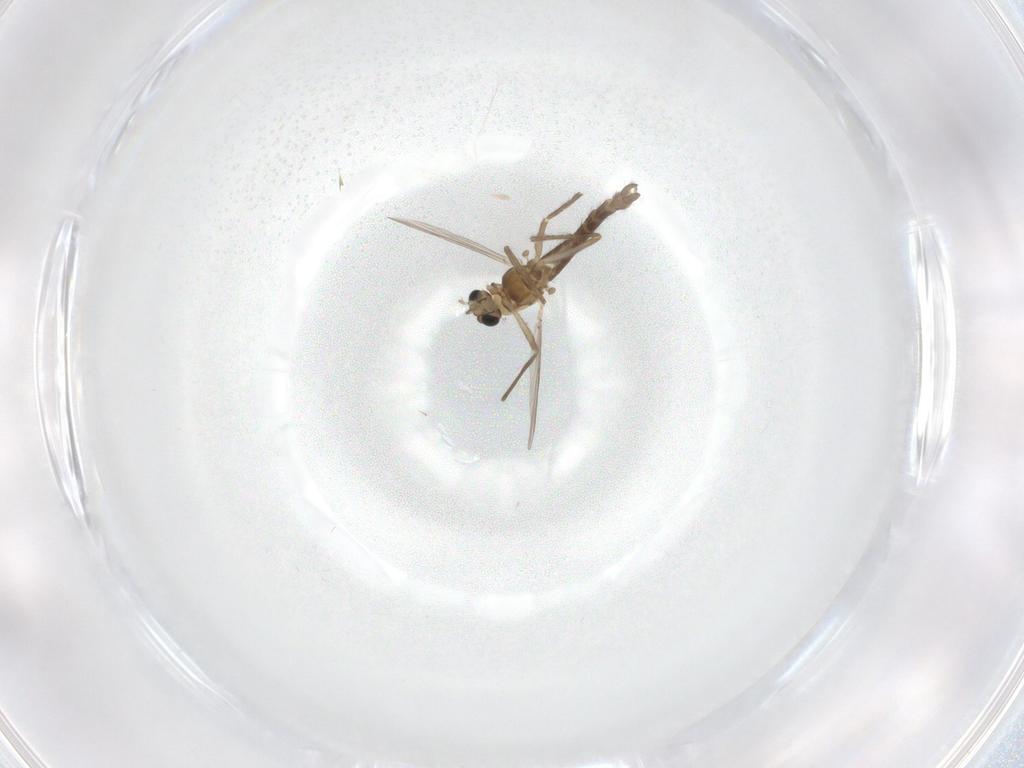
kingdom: Animalia
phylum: Arthropoda
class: Insecta
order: Diptera
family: Chironomidae
